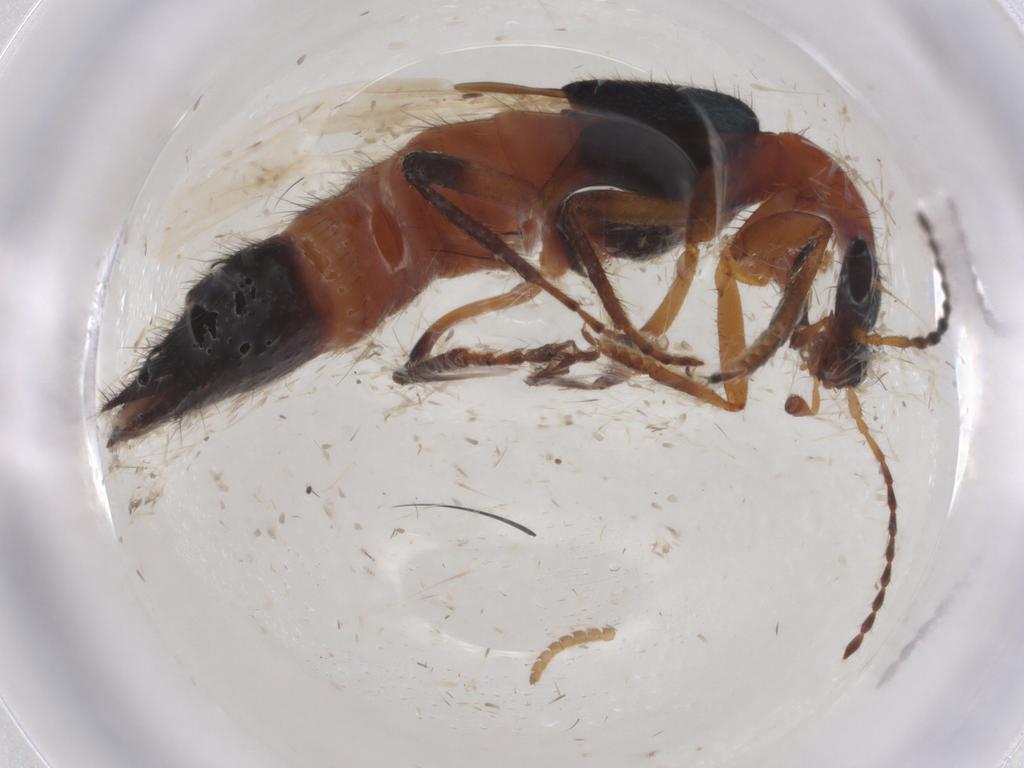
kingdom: Animalia
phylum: Arthropoda
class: Insecta
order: Coleoptera
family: Staphylinidae
